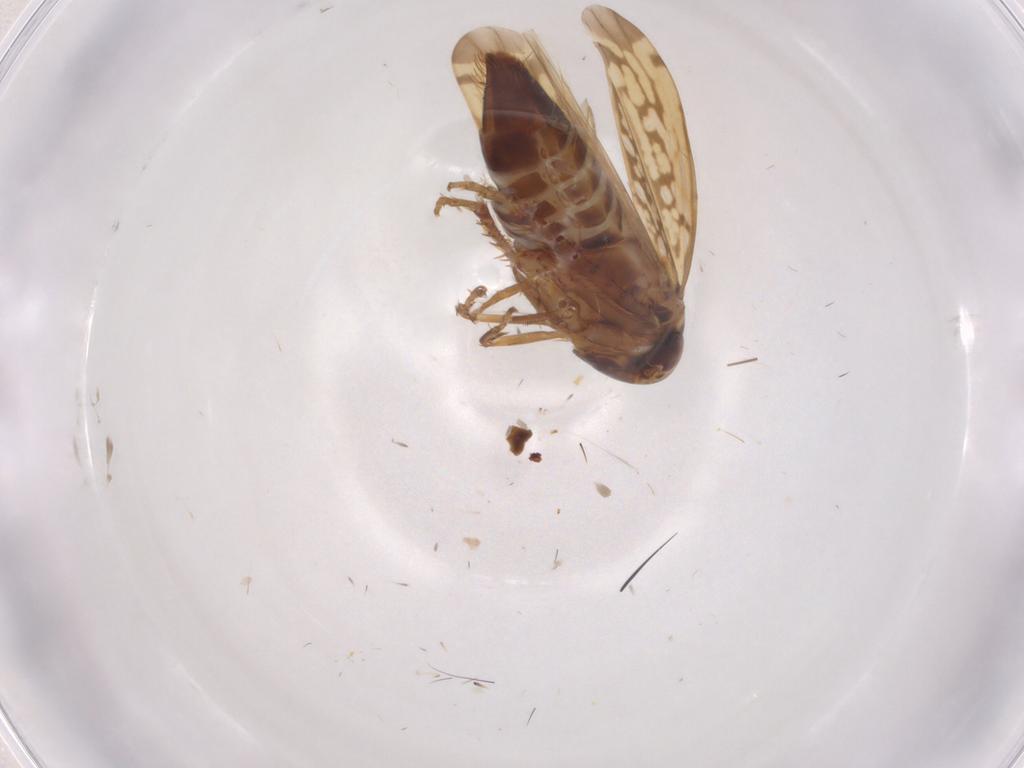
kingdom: Animalia
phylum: Arthropoda
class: Insecta
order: Hemiptera
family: Cicadellidae
